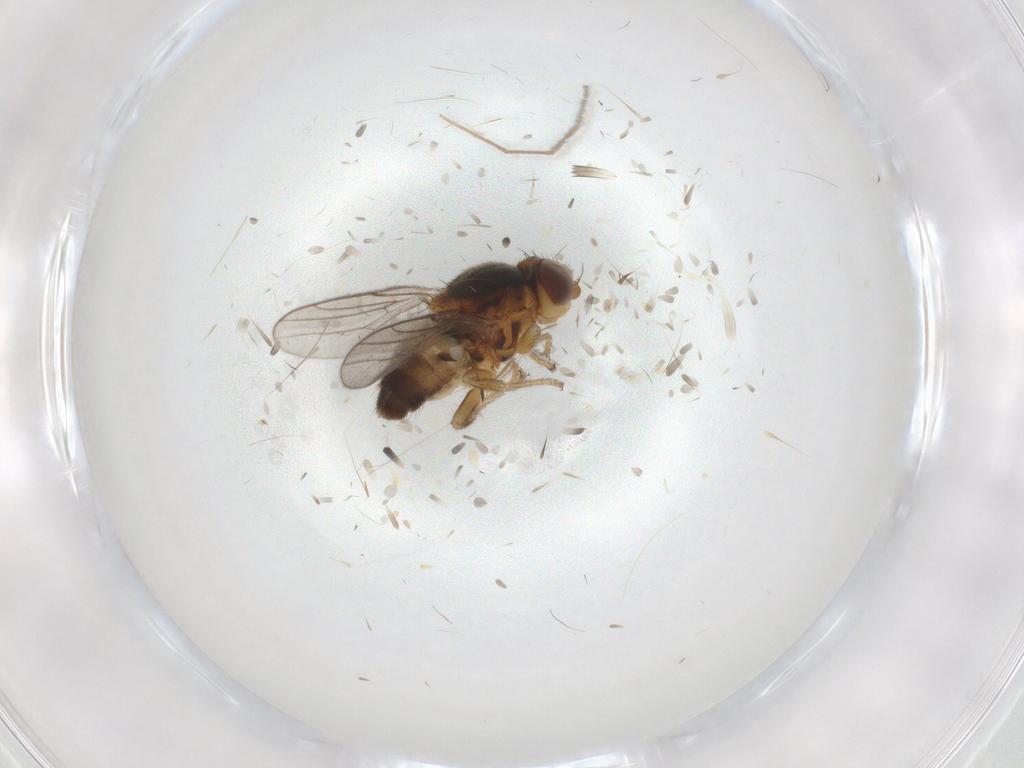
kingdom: Animalia
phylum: Arthropoda
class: Insecta
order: Diptera
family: Chloropidae
